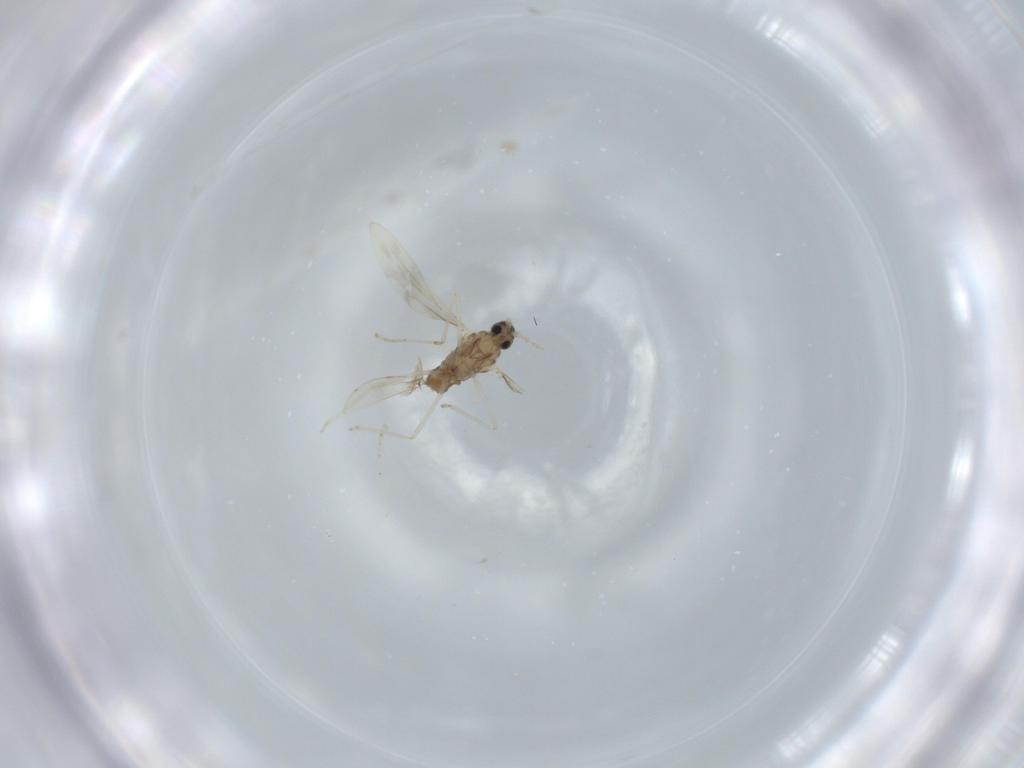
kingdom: Animalia
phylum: Arthropoda
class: Insecta
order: Diptera
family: Cecidomyiidae
